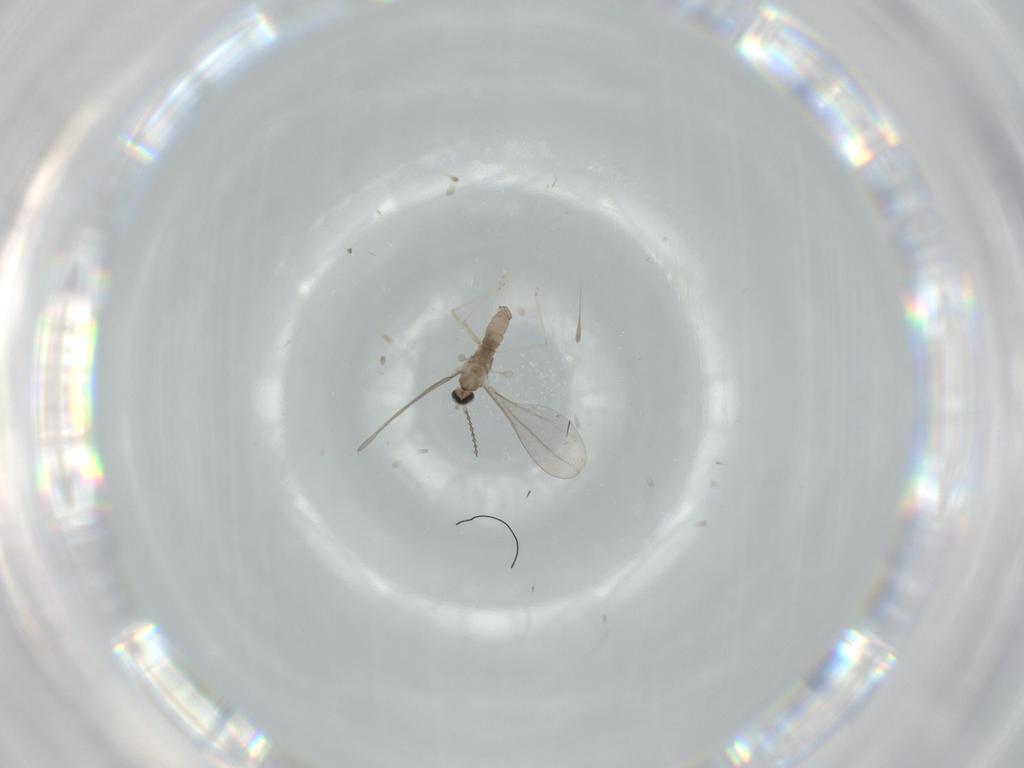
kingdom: Animalia
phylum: Arthropoda
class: Insecta
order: Diptera
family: Cecidomyiidae
